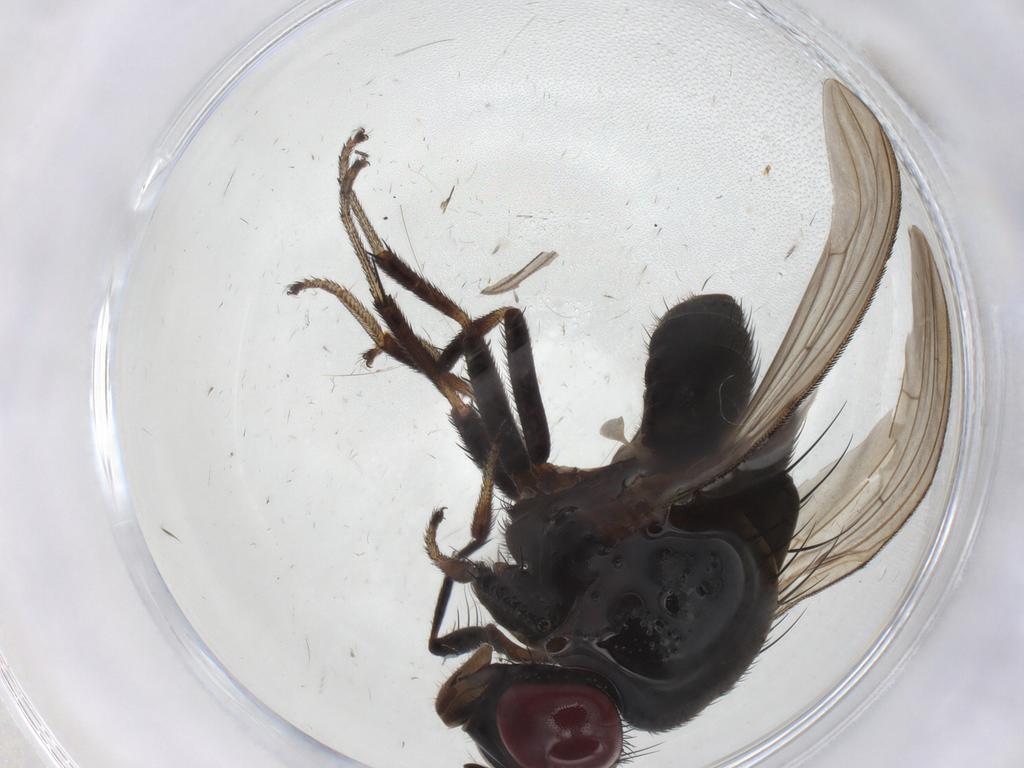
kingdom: Animalia
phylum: Arthropoda
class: Insecta
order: Diptera
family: Lauxaniidae
